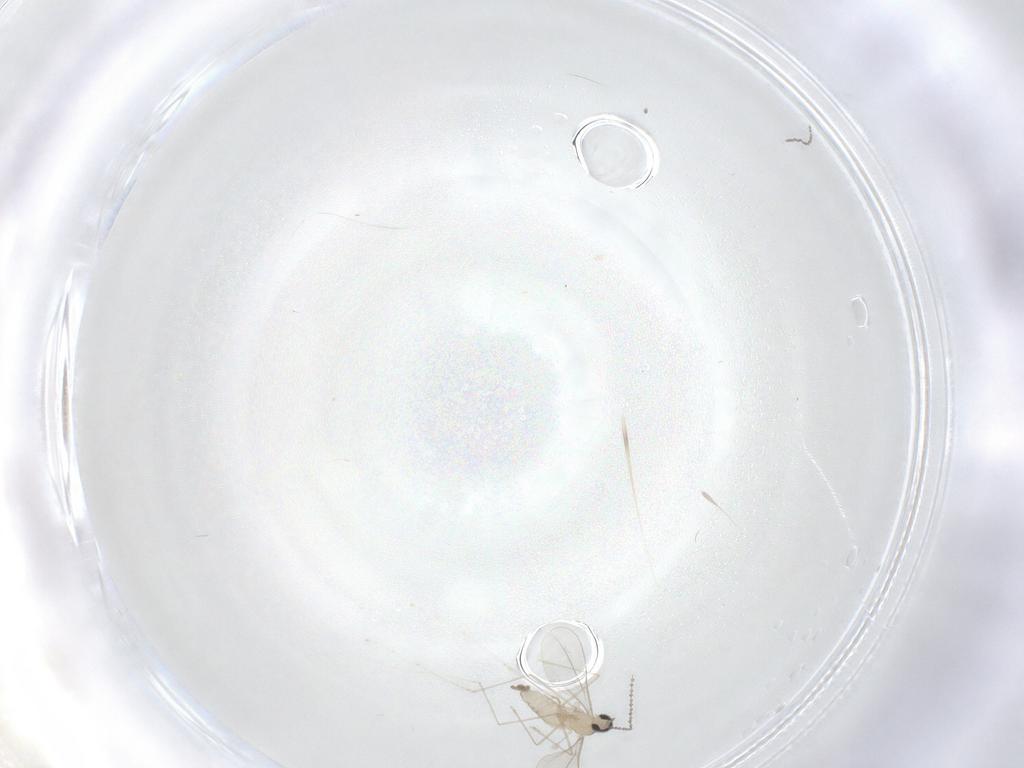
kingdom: Animalia
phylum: Arthropoda
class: Insecta
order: Diptera
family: Cecidomyiidae
